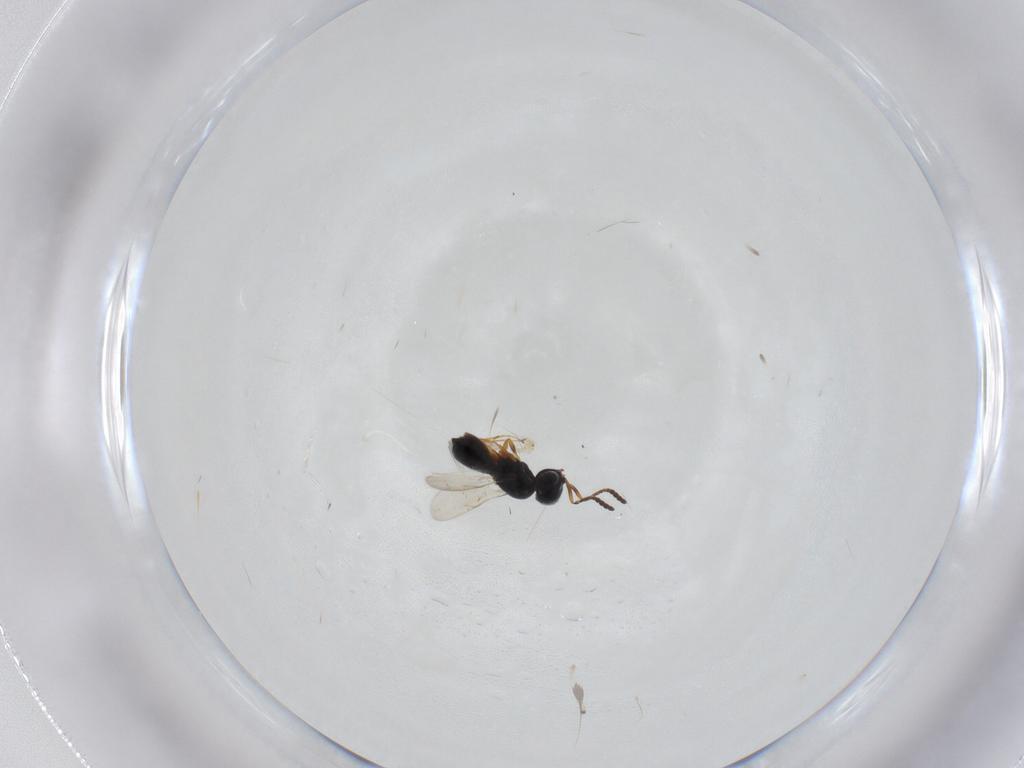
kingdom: Animalia
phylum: Arthropoda
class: Insecta
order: Hymenoptera
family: Scelionidae
